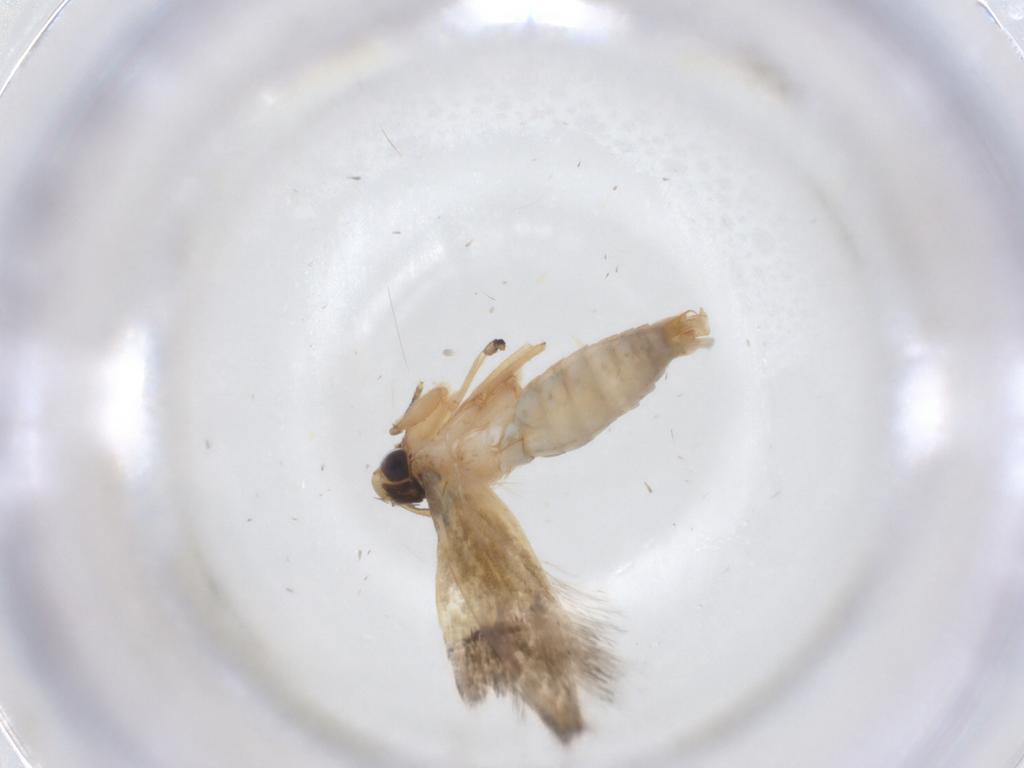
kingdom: Animalia
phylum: Arthropoda
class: Insecta
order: Lepidoptera
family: Tineidae
